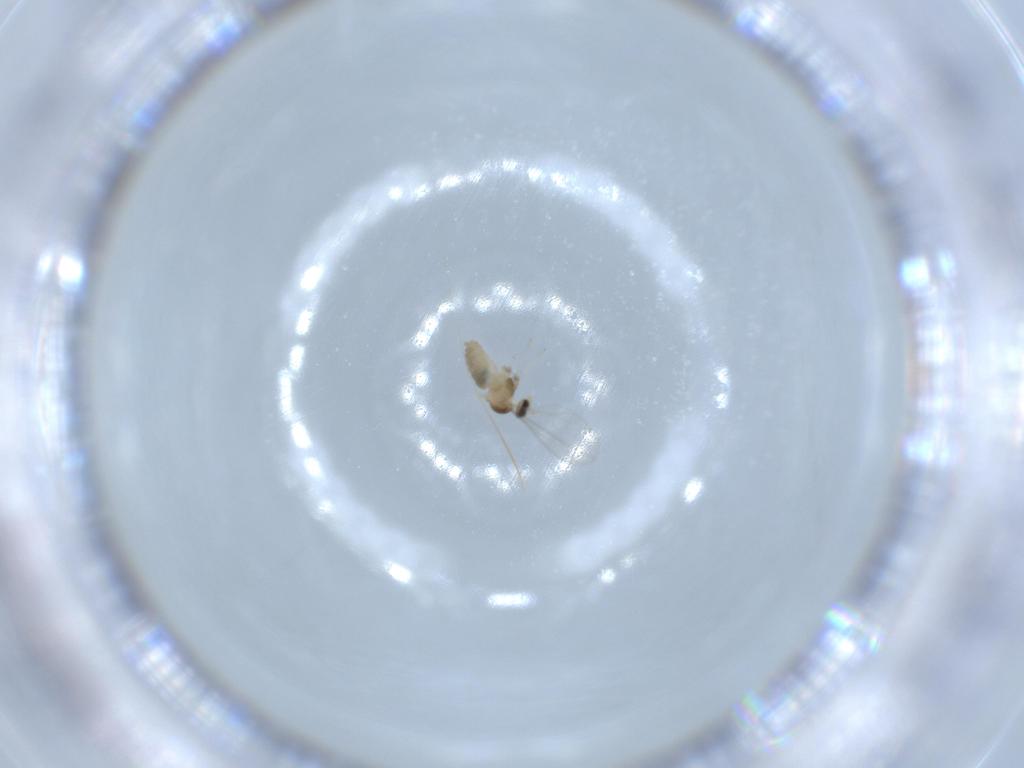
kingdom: Animalia
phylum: Arthropoda
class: Insecta
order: Diptera
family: Cecidomyiidae
